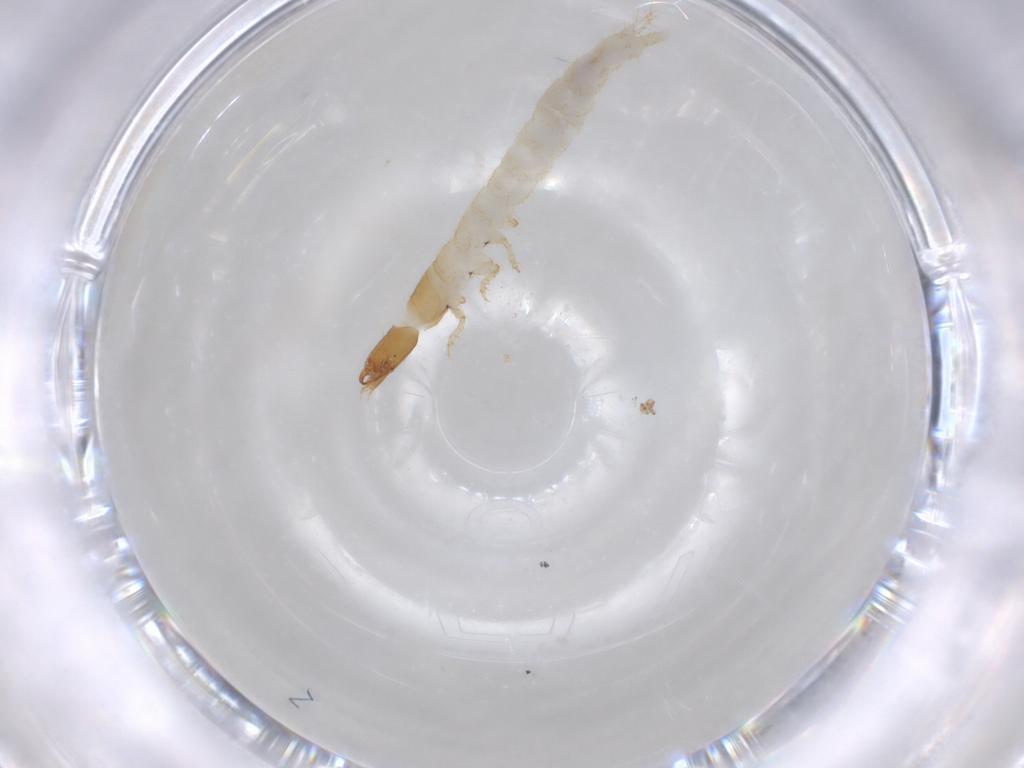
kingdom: Animalia
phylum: Arthropoda
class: Insecta
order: Coleoptera
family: Carabidae
